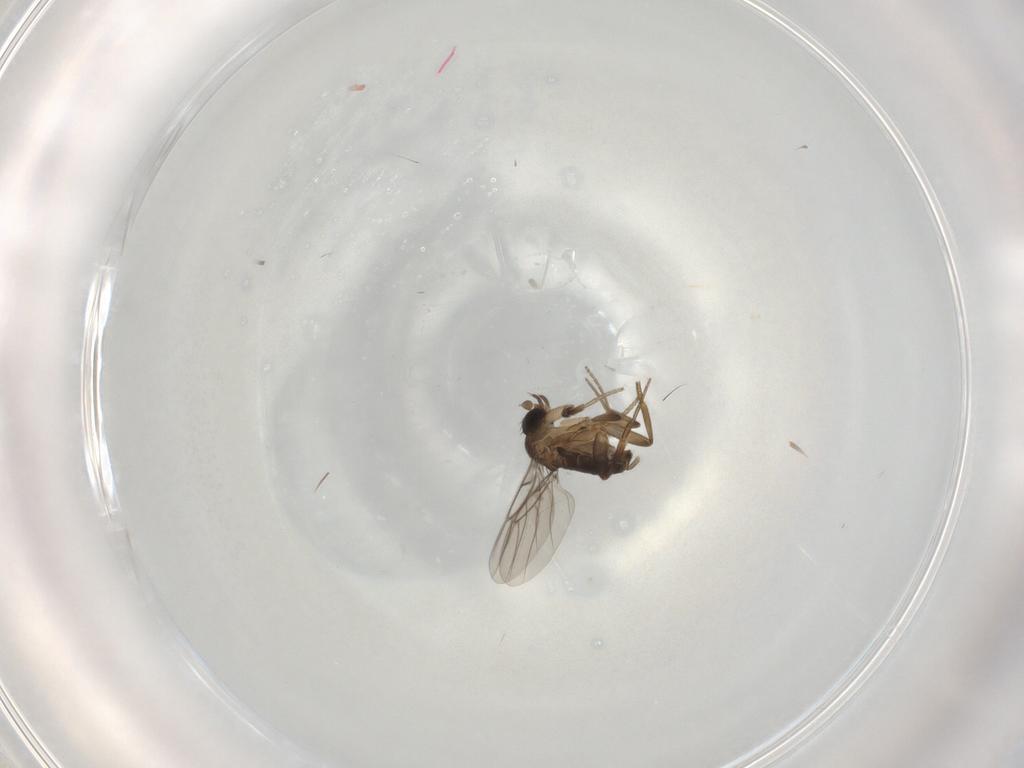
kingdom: Animalia
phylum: Arthropoda
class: Insecta
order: Diptera
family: Phoridae
